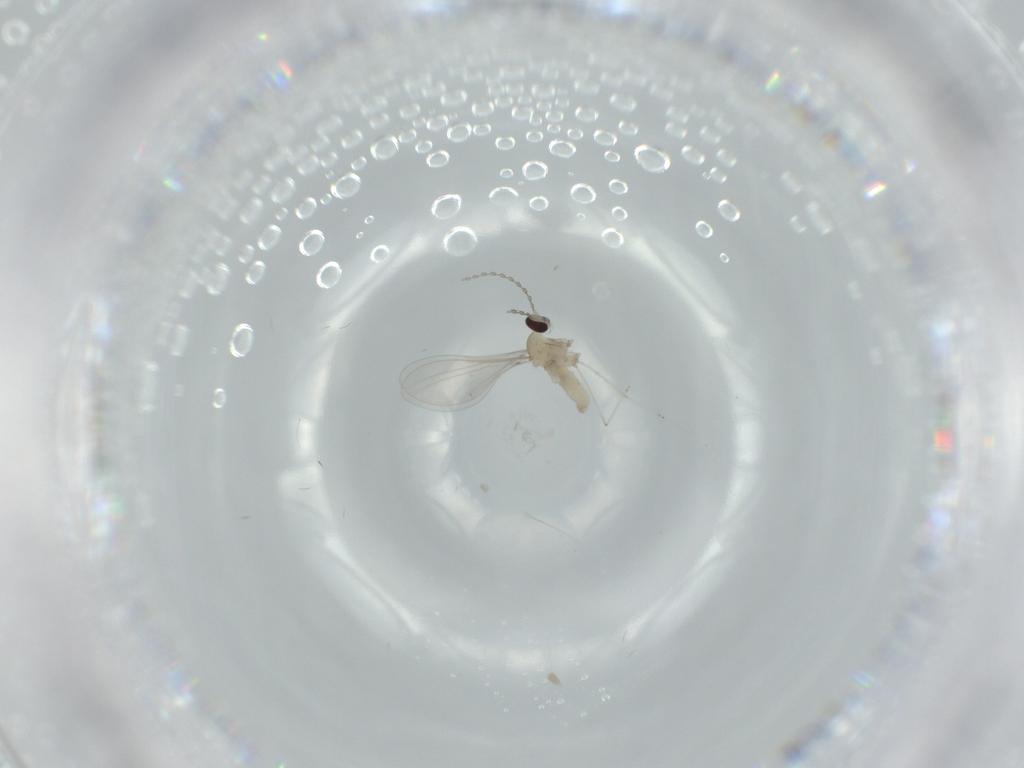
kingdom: Animalia
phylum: Arthropoda
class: Insecta
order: Diptera
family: Cecidomyiidae
